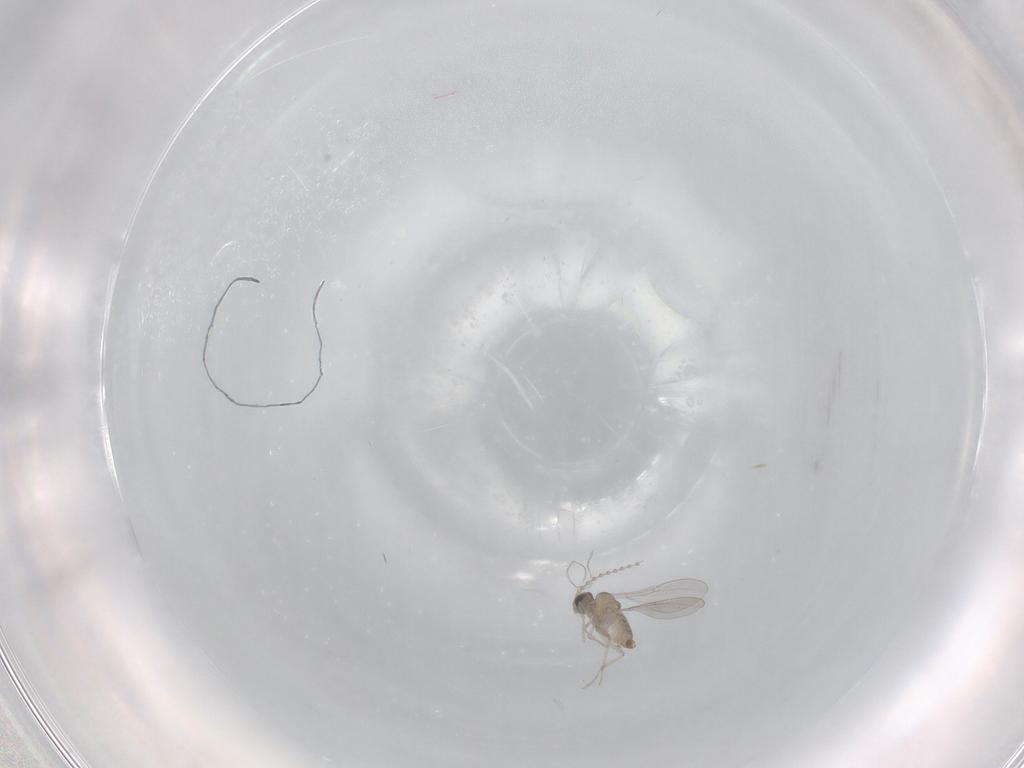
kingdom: Animalia
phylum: Arthropoda
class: Insecta
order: Diptera
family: Cecidomyiidae
